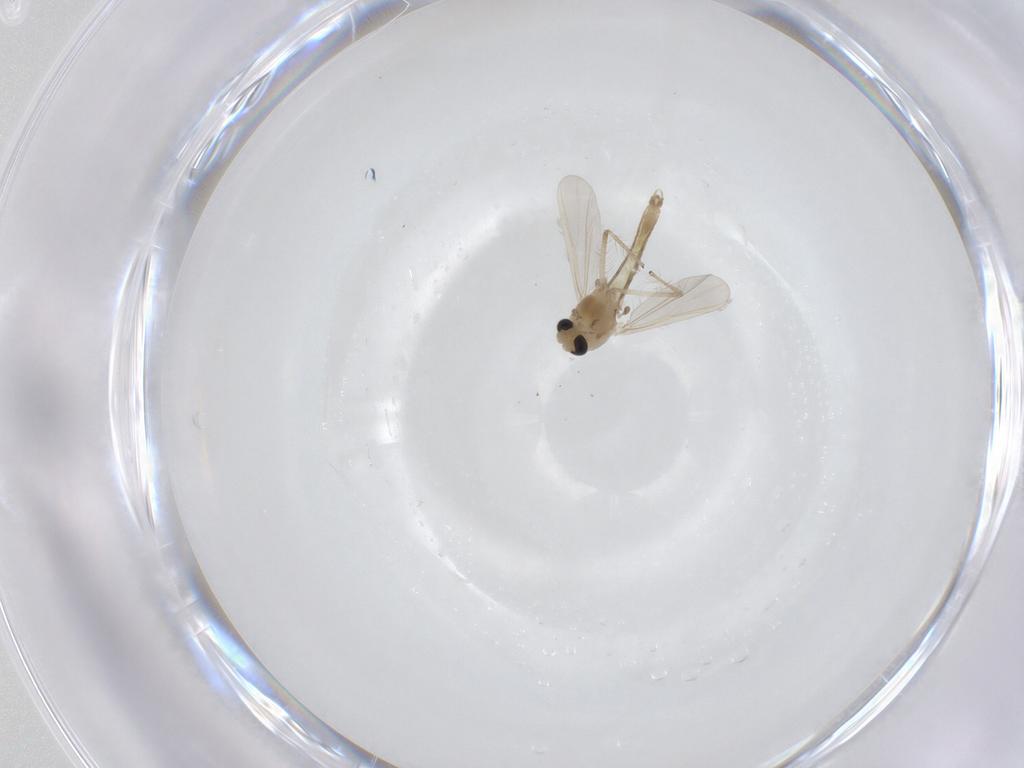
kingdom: Animalia
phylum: Arthropoda
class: Insecta
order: Diptera
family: Chironomidae
